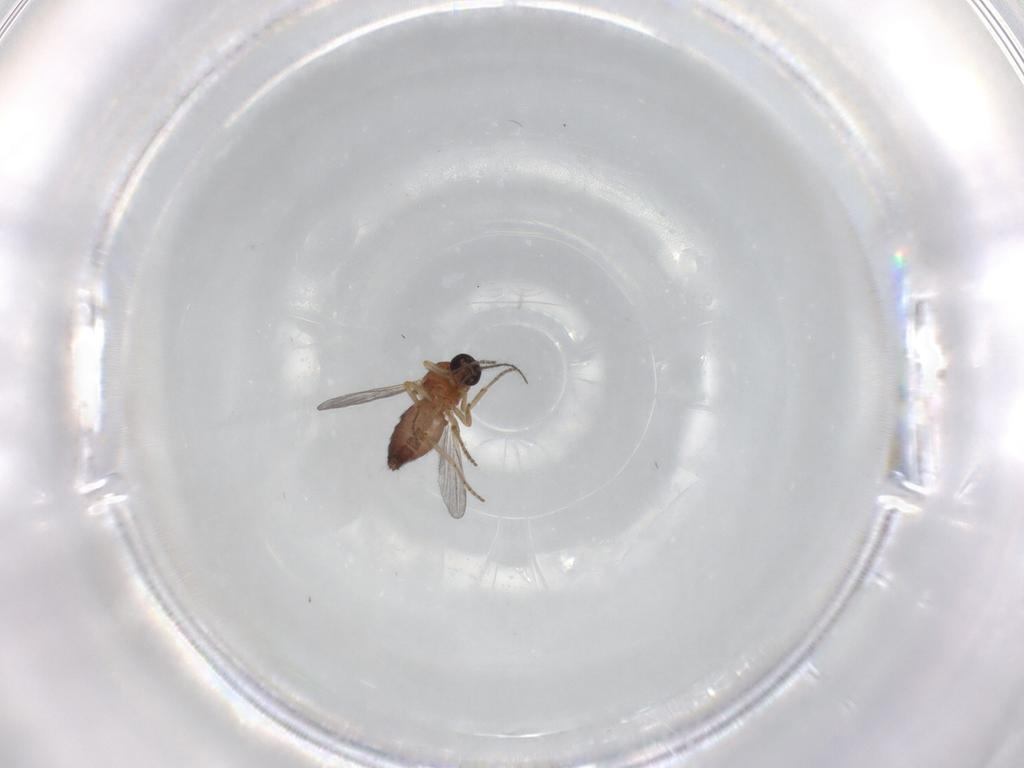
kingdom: Animalia
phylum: Arthropoda
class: Insecta
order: Diptera
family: Ceratopogonidae
